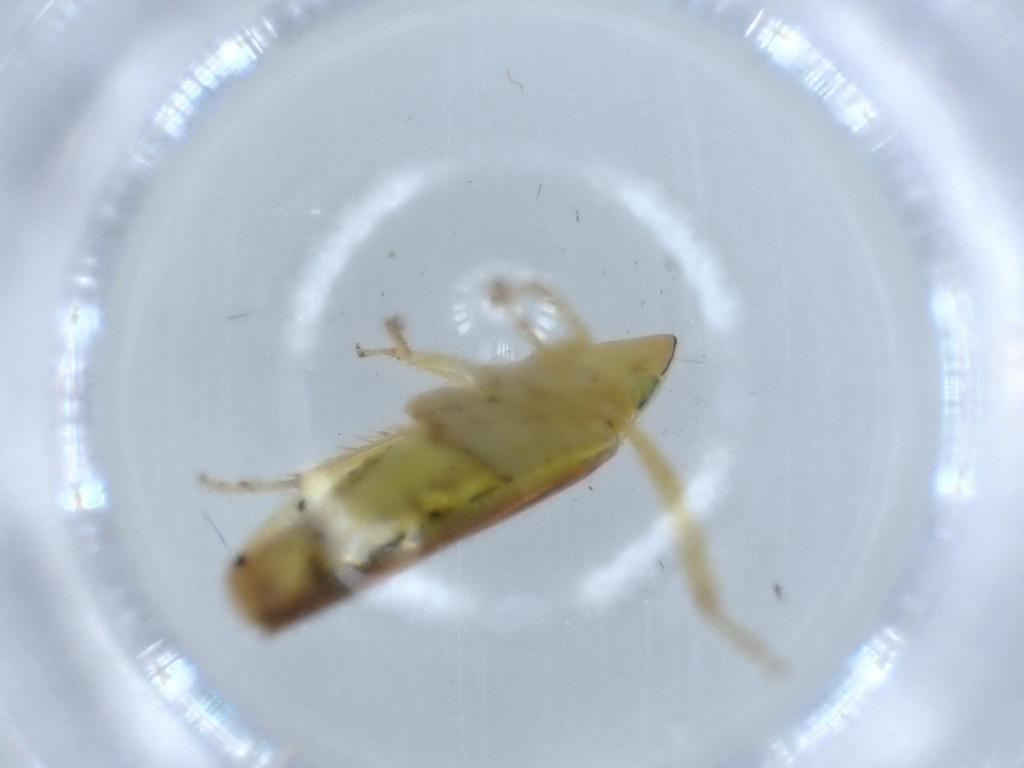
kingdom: Animalia
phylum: Arthropoda
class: Insecta
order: Hemiptera
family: Cicadellidae
